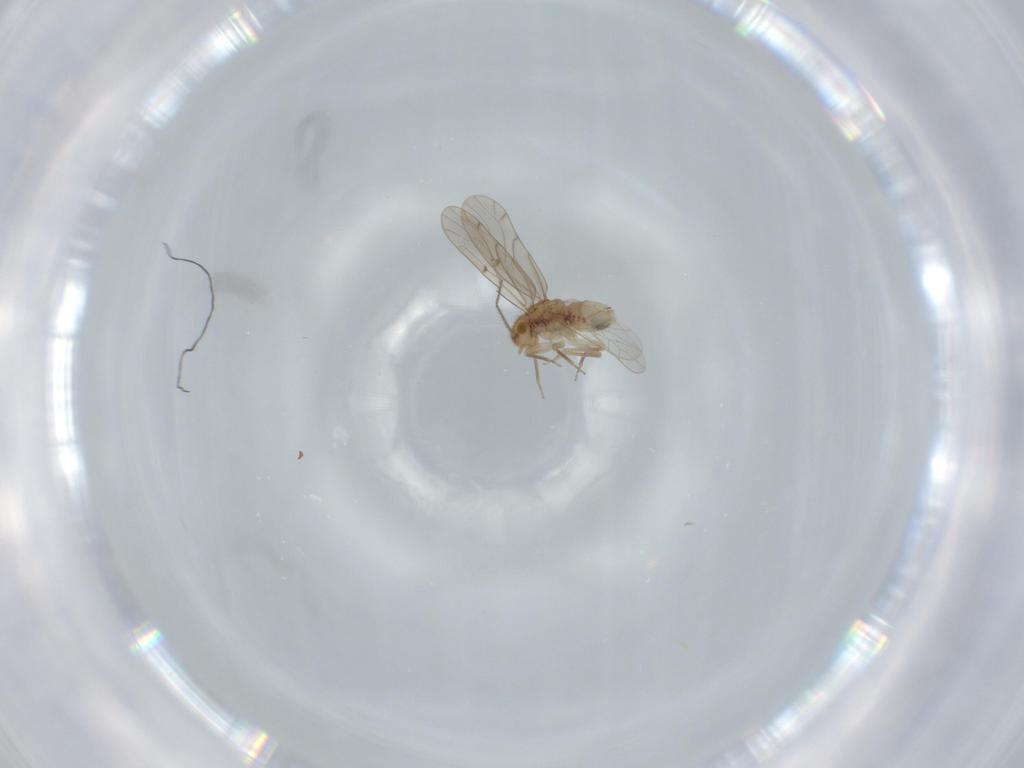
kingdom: Animalia
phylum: Arthropoda
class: Insecta
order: Psocodea
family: Ectopsocidae
